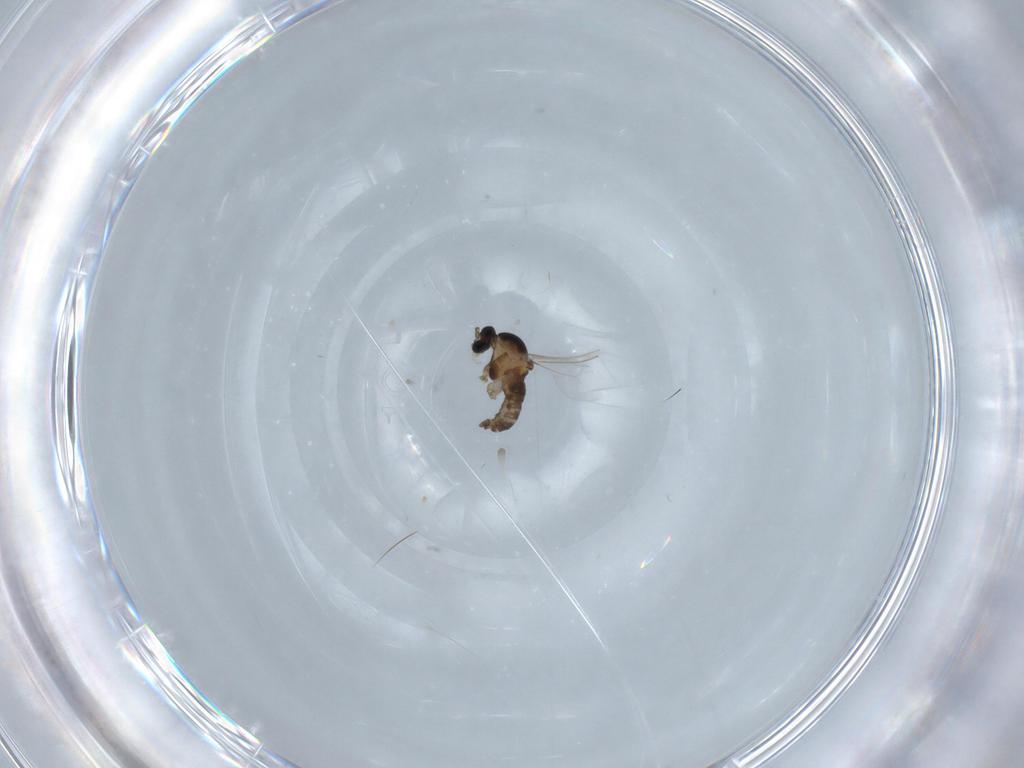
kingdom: Animalia
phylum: Arthropoda
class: Insecta
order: Diptera
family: Cecidomyiidae
